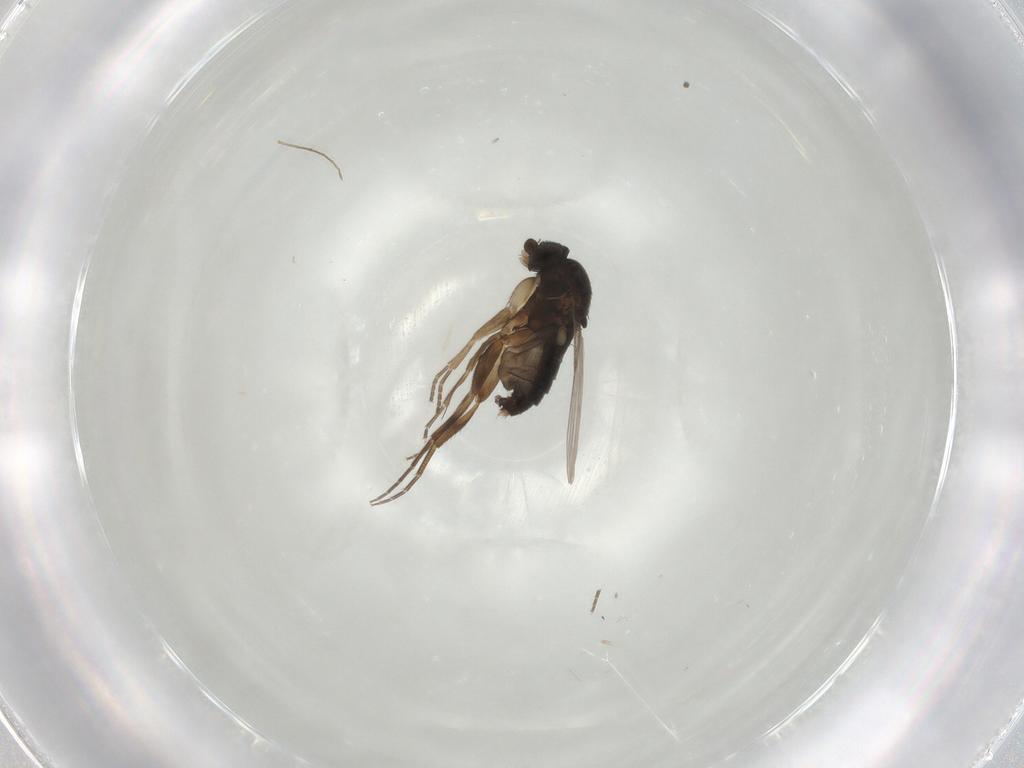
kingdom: Animalia
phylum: Arthropoda
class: Insecta
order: Diptera
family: Phoridae
